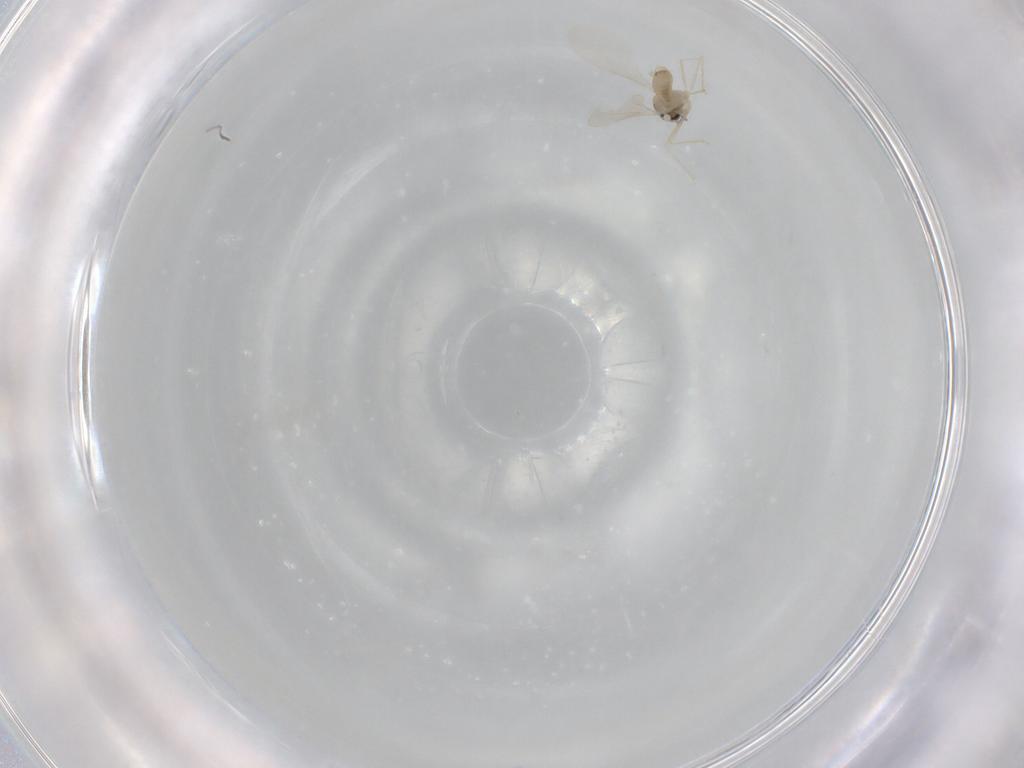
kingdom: Animalia
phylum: Arthropoda
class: Insecta
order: Diptera
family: Cecidomyiidae
